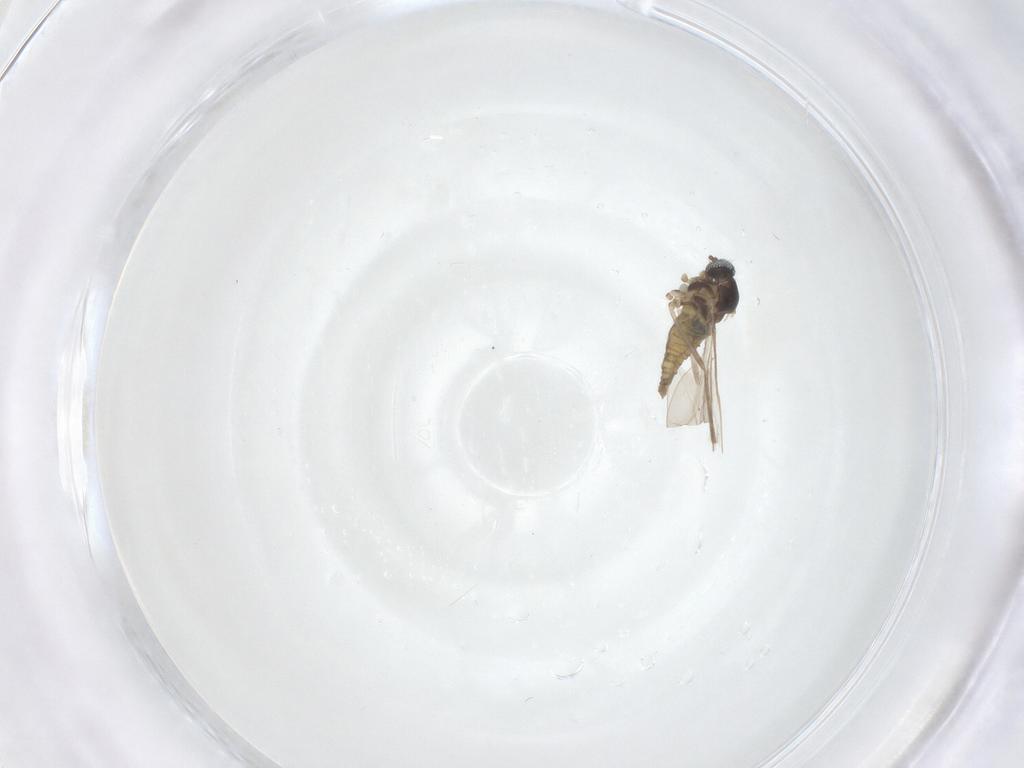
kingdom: Animalia
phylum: Arthropoda
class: Insecta
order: Diptera
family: Cecidomyiidae
